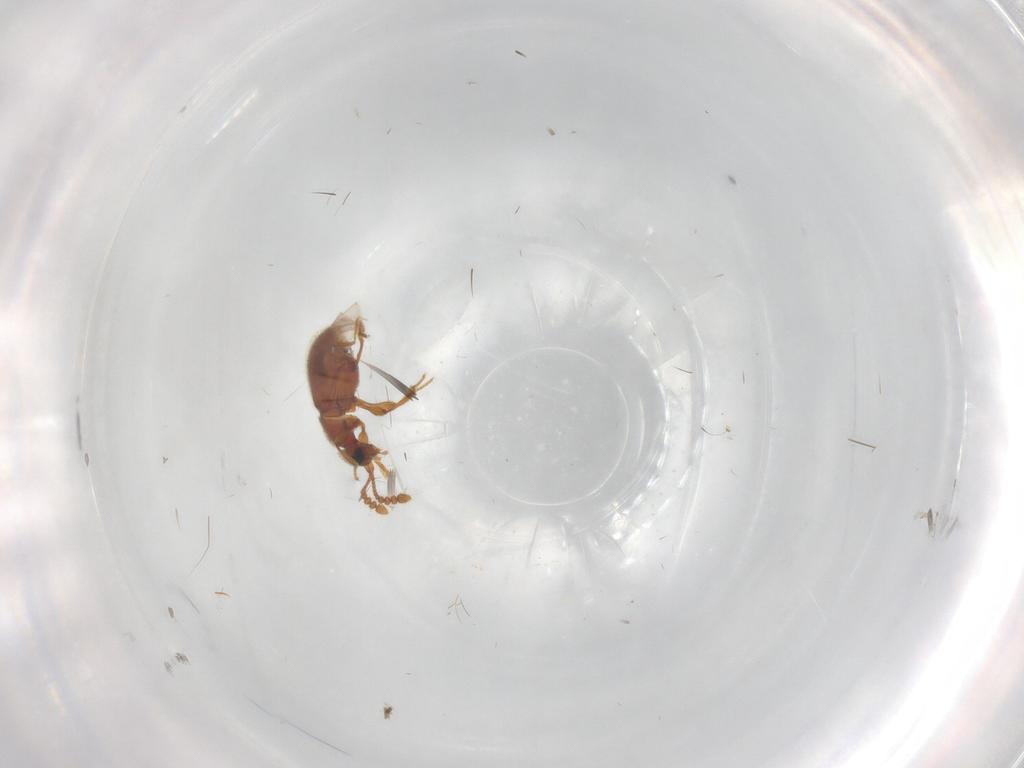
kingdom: Animalia
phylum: Arthropoda
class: Insecta
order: Coleoptera
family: Staphylinidae
